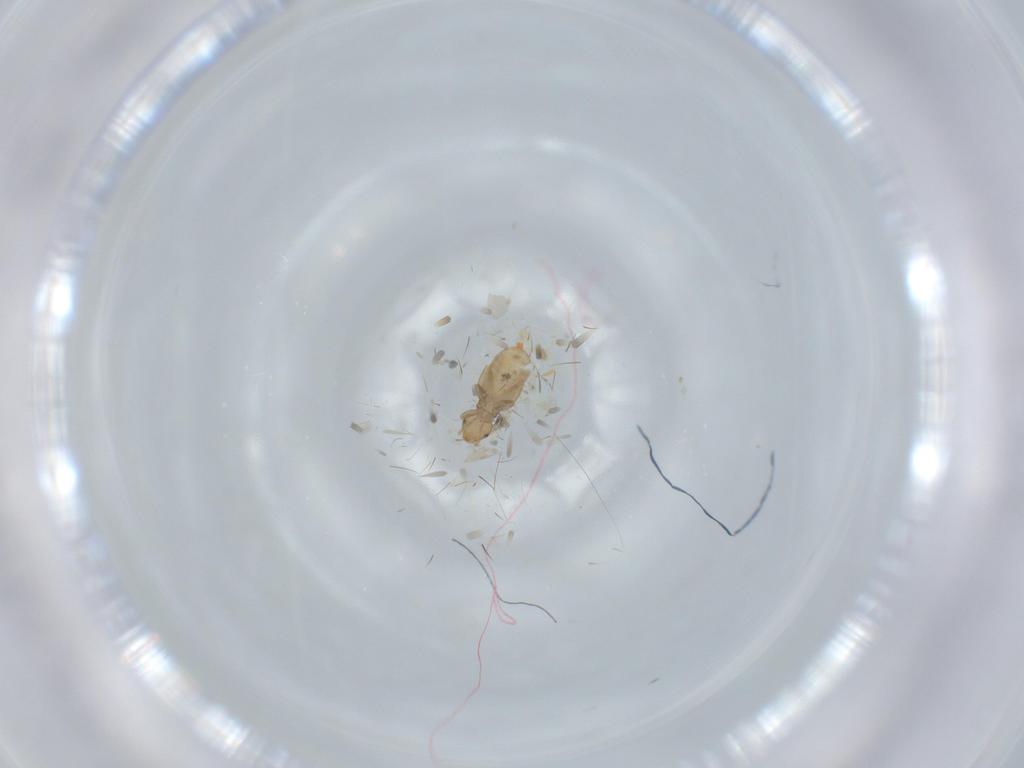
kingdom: Animalia
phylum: Arthropoda
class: Insecta
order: Psocodea
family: Liposcelididae
